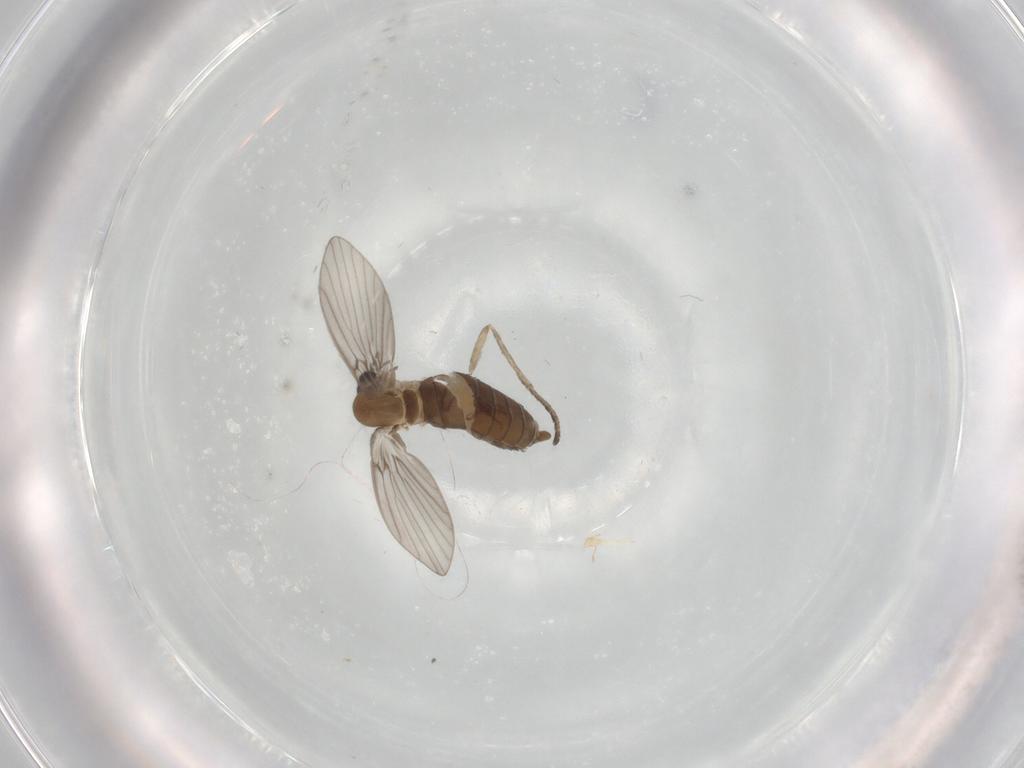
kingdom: Animalia
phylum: Arthropoda
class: Insecta
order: Diptera
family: Psychodidae
